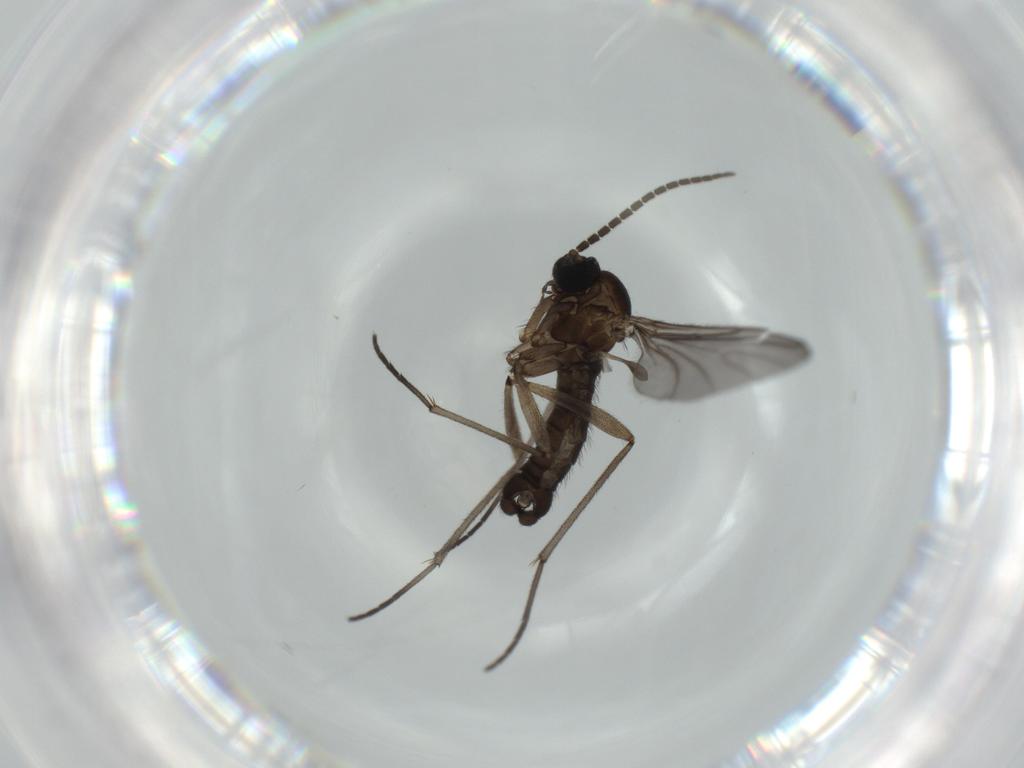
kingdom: Animalia
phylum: Arthropoda
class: Insecta
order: Diptera
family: Sciaridae
